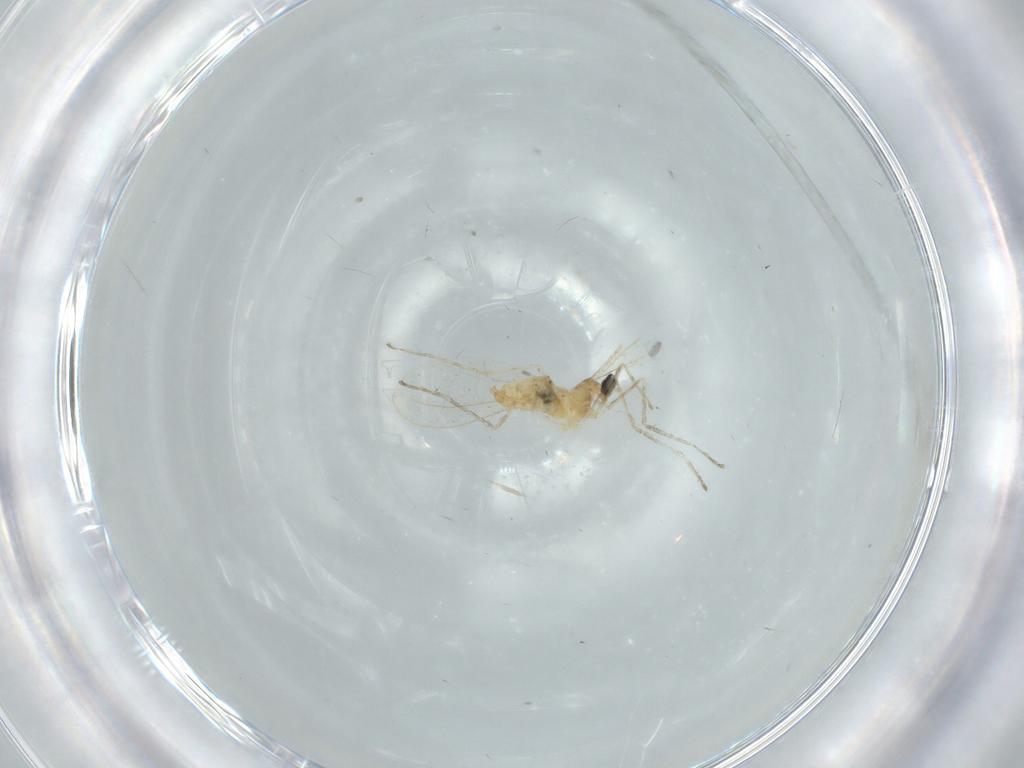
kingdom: Animalia
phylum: Arthropoda
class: Insecta
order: Diptera
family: Cecidomyiidae
